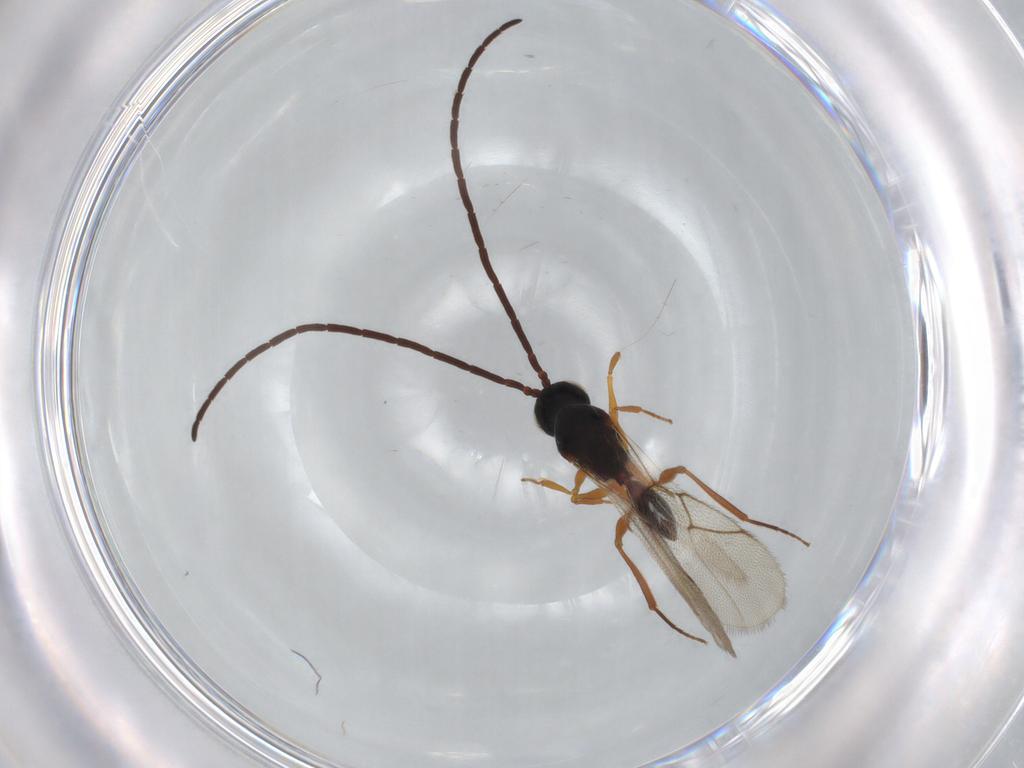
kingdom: Animalia
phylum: Arthropoda
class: Insecta
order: Hymenoptera
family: Figitidae
